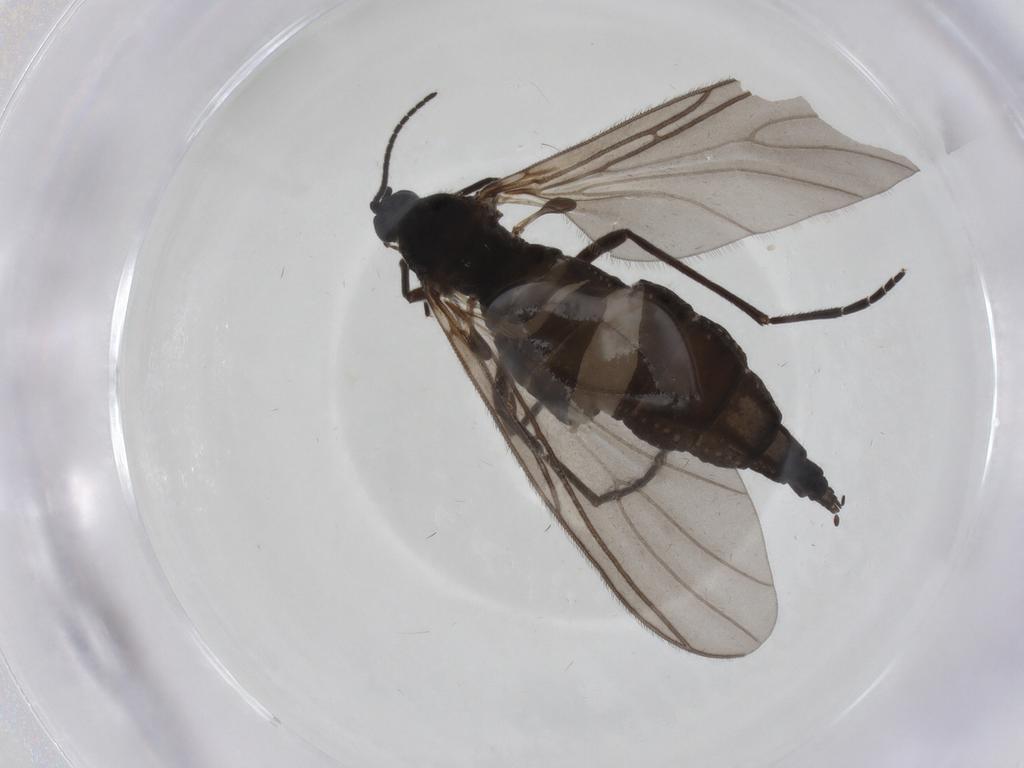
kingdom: Animalia
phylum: Arthropoda
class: Insecta
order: Diptera
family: Sciaridae
